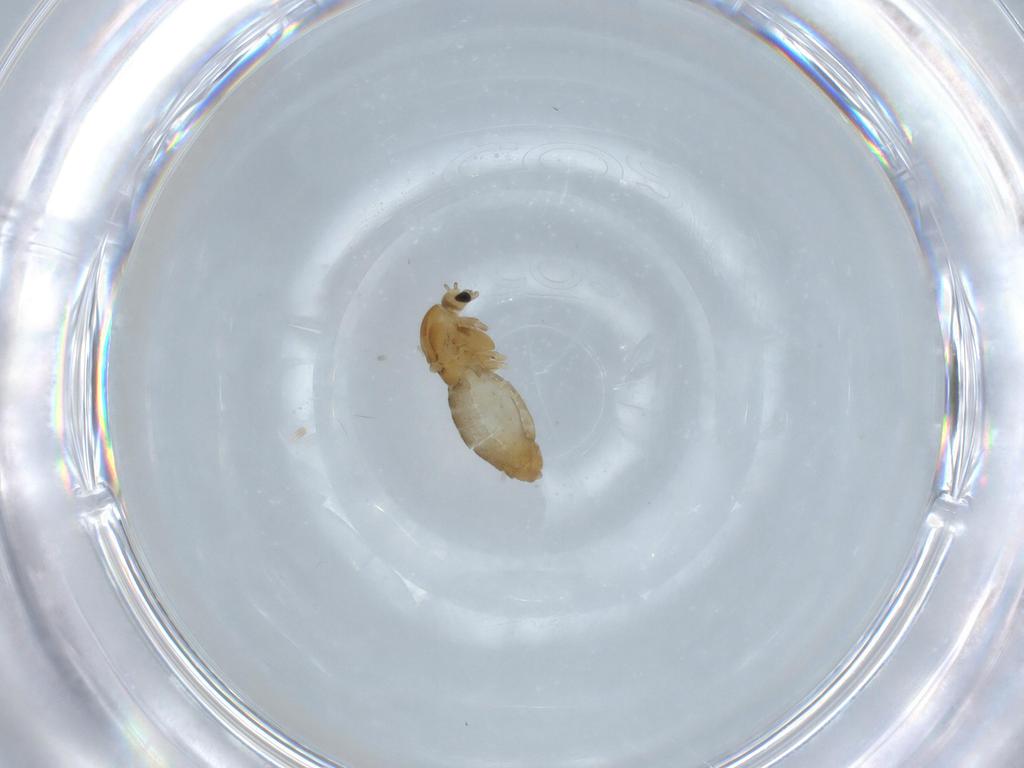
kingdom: Animalia
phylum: Arthropoda
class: Insecta
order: Diptera
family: Chironomidae
